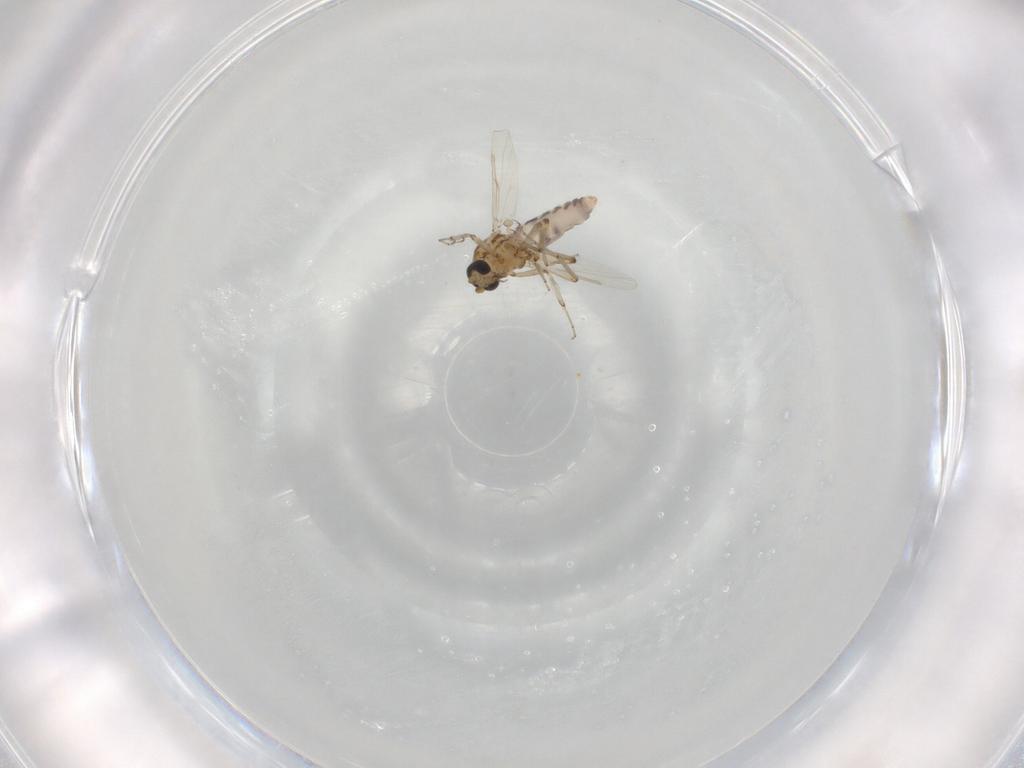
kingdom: Animalia
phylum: Arthropoda
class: Insecta
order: Diptera
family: Ceratopogonidae
